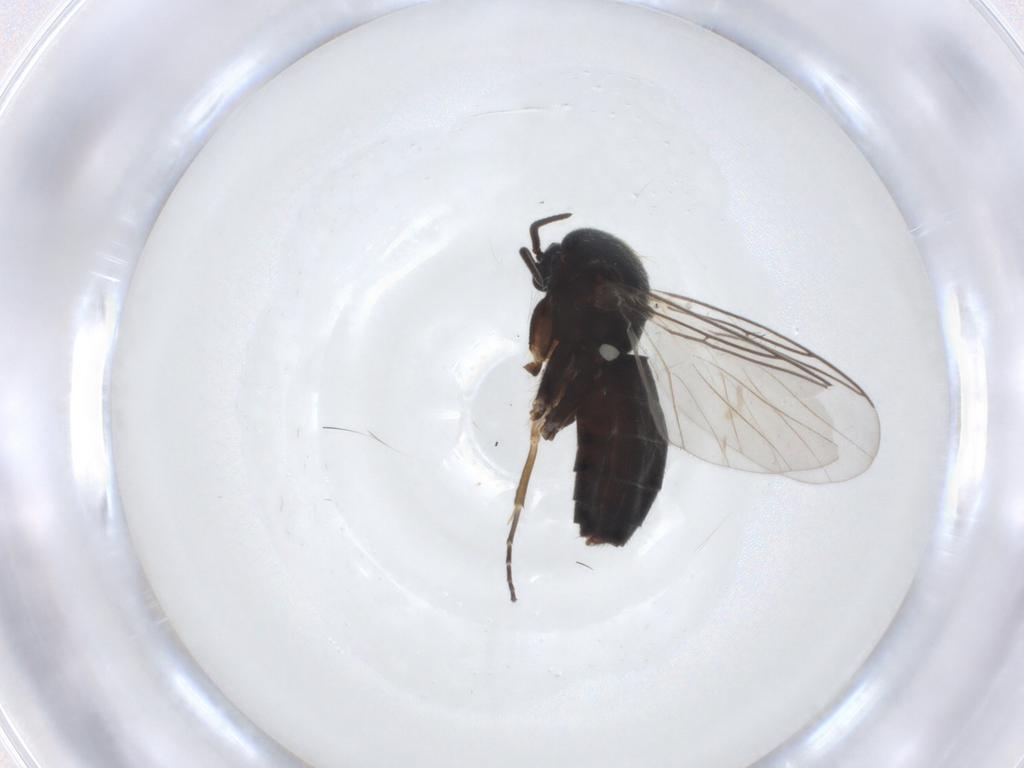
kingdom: Animalia
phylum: Arthropoda
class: Insecta
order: Diptera
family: Mycetophilidae
